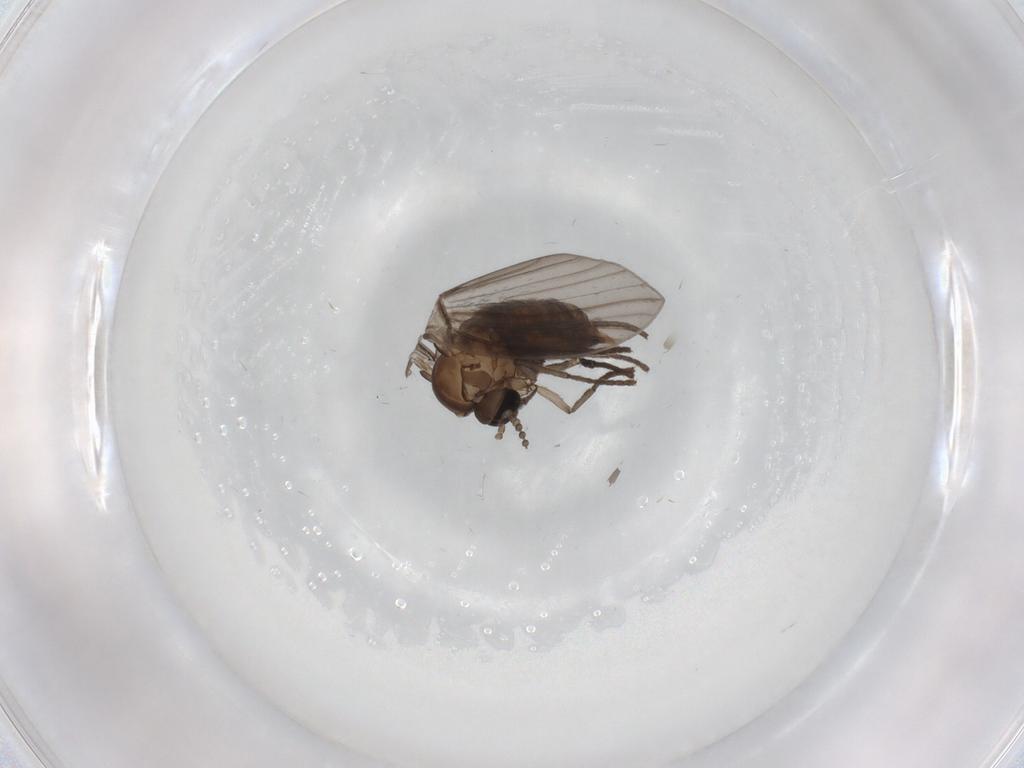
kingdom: Animalia
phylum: Arthropoda
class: Insecta
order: Diptera
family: Psychodidae
